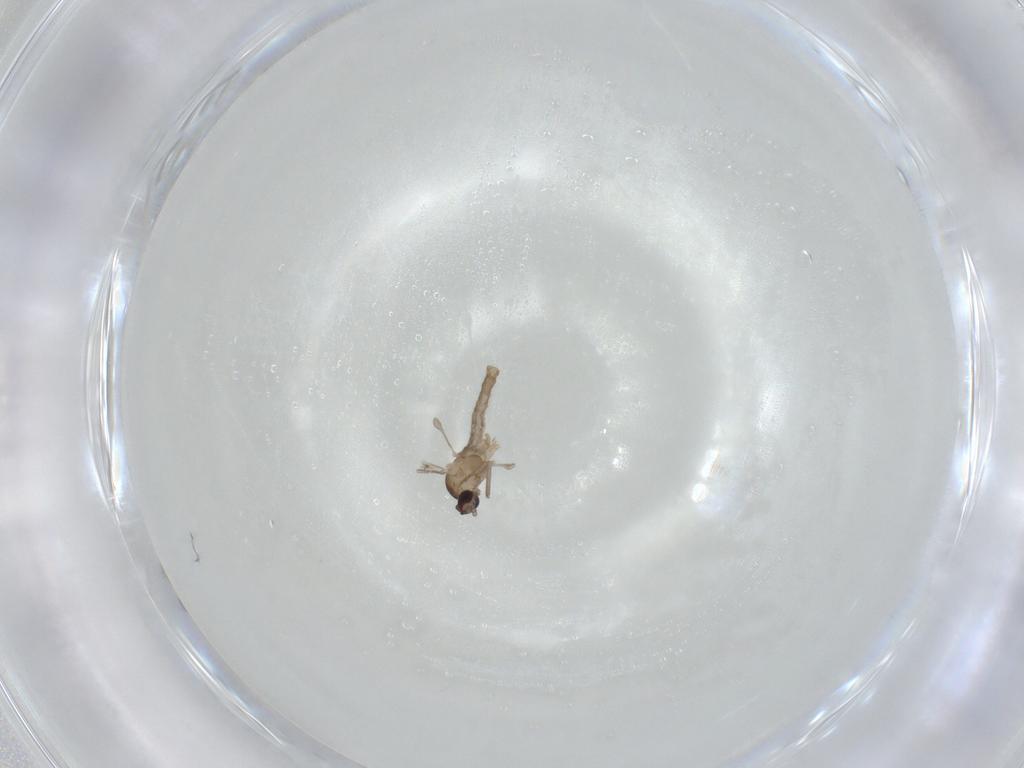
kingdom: Animalia
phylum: Arthropoda
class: Insecta
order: Diptera
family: Cecidomyiidae
